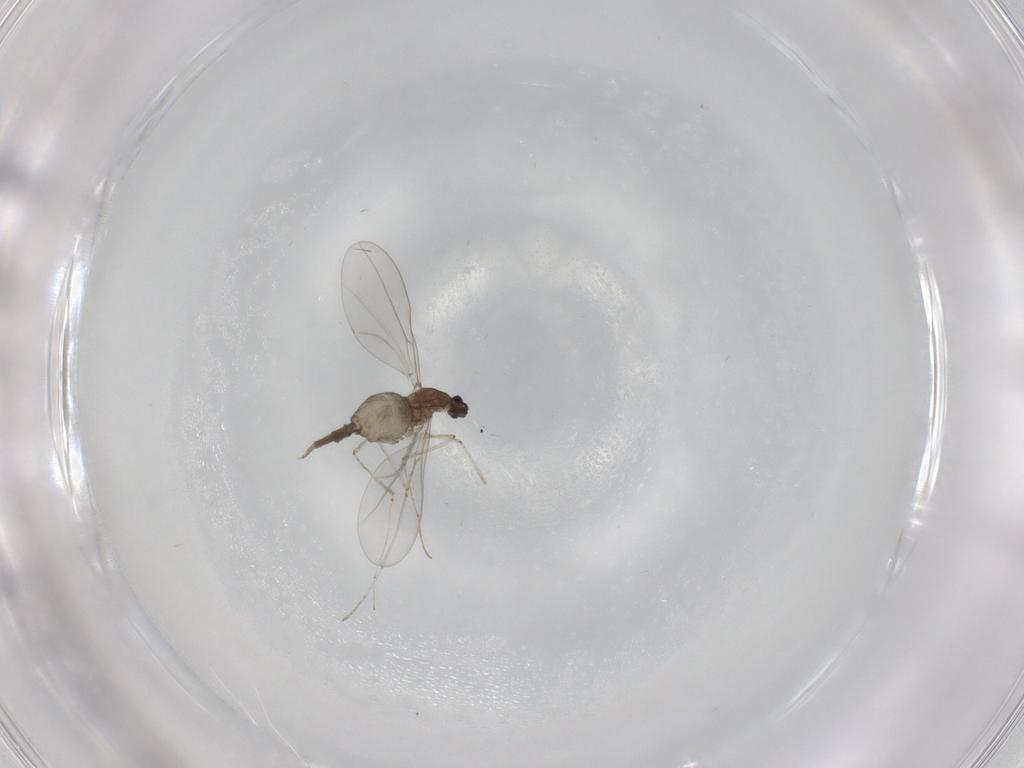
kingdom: Animalia
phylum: Arthropoda
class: Insecta
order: Diptera
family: Cecidomyiidae
